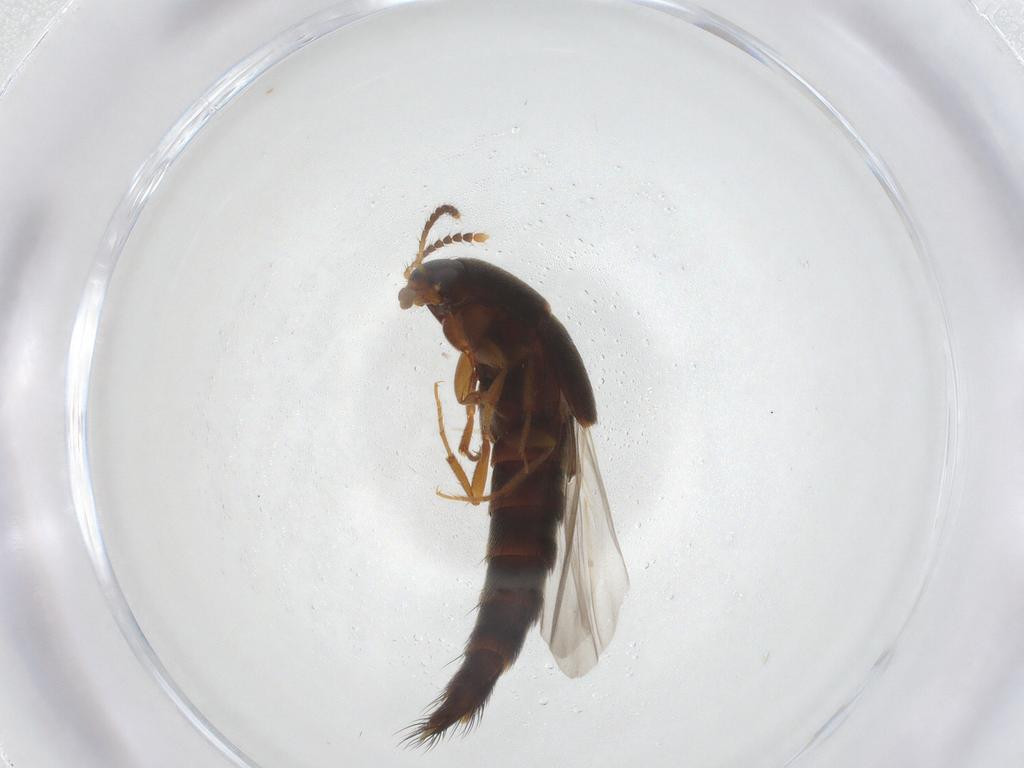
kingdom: Animalia
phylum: Arthropoda
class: Insecta
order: Coleoptera
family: Staphylinidae
